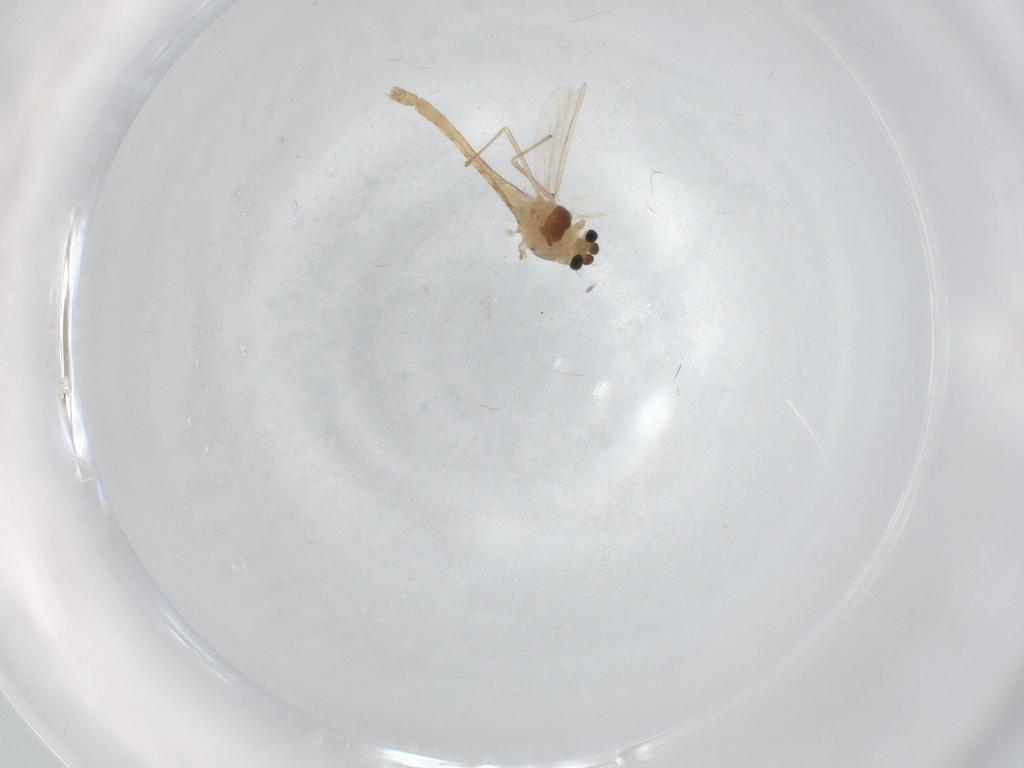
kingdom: Animalia
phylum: Arthropoda
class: Insecta
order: Diptera
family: Chironomidae
